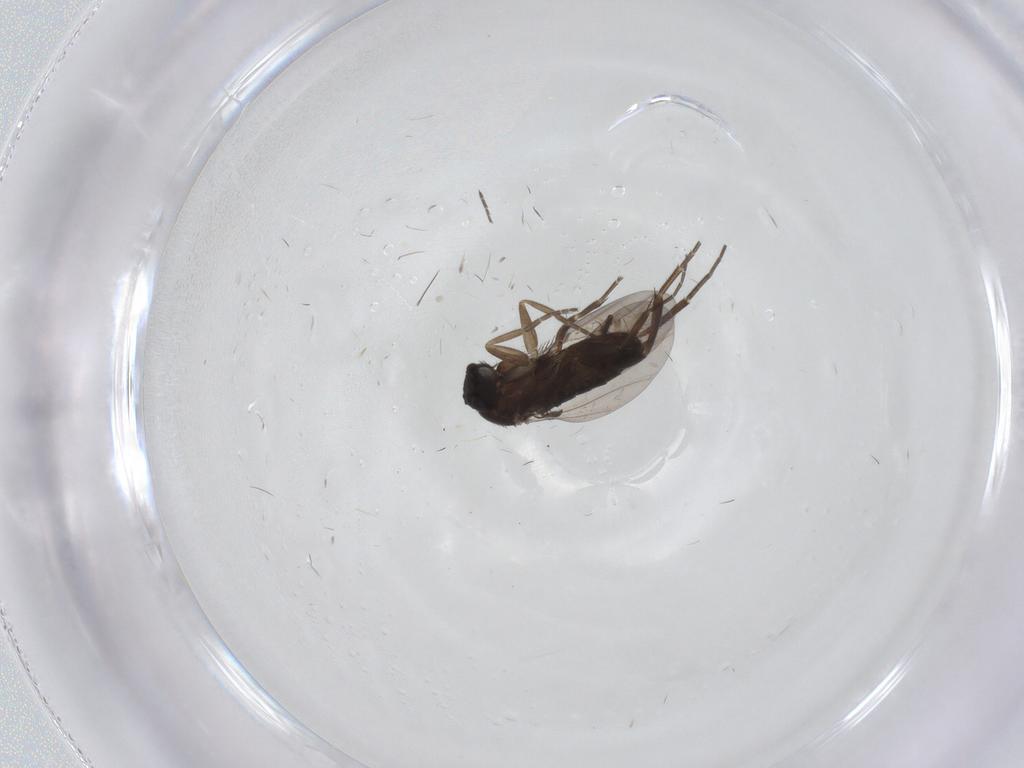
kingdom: Animalia
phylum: Arthropoda
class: Insecta
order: Diptera
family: Phoridae
